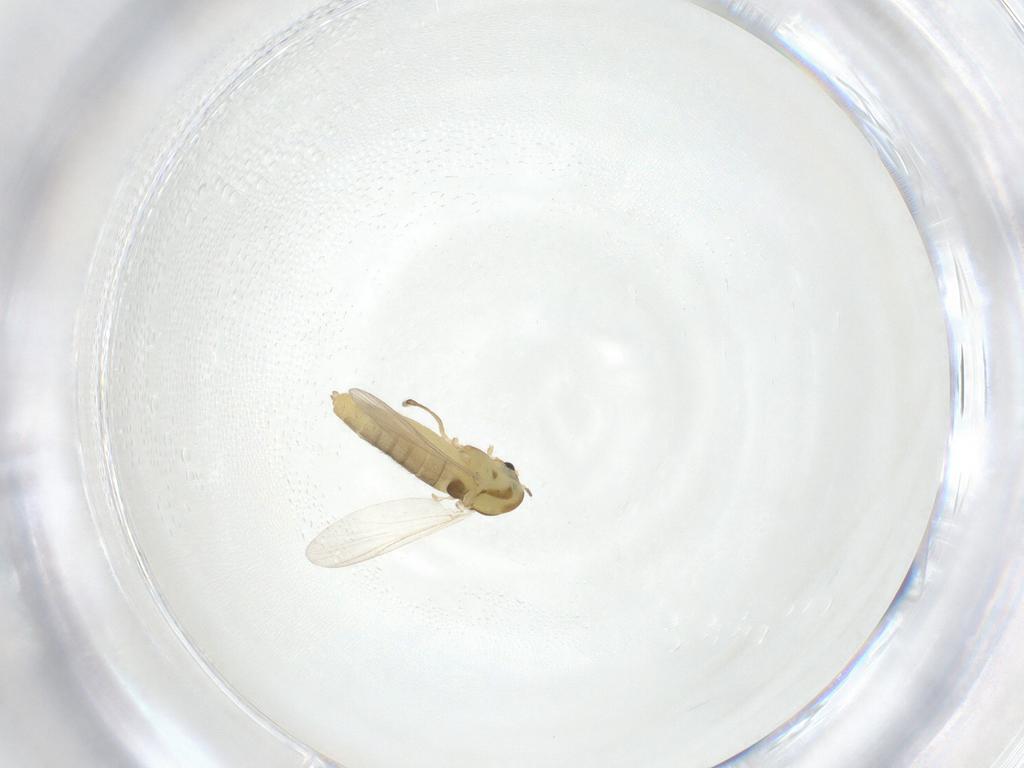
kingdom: Animalia
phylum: Arthropoda
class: Insecta
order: Diptera
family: Chironomidae
